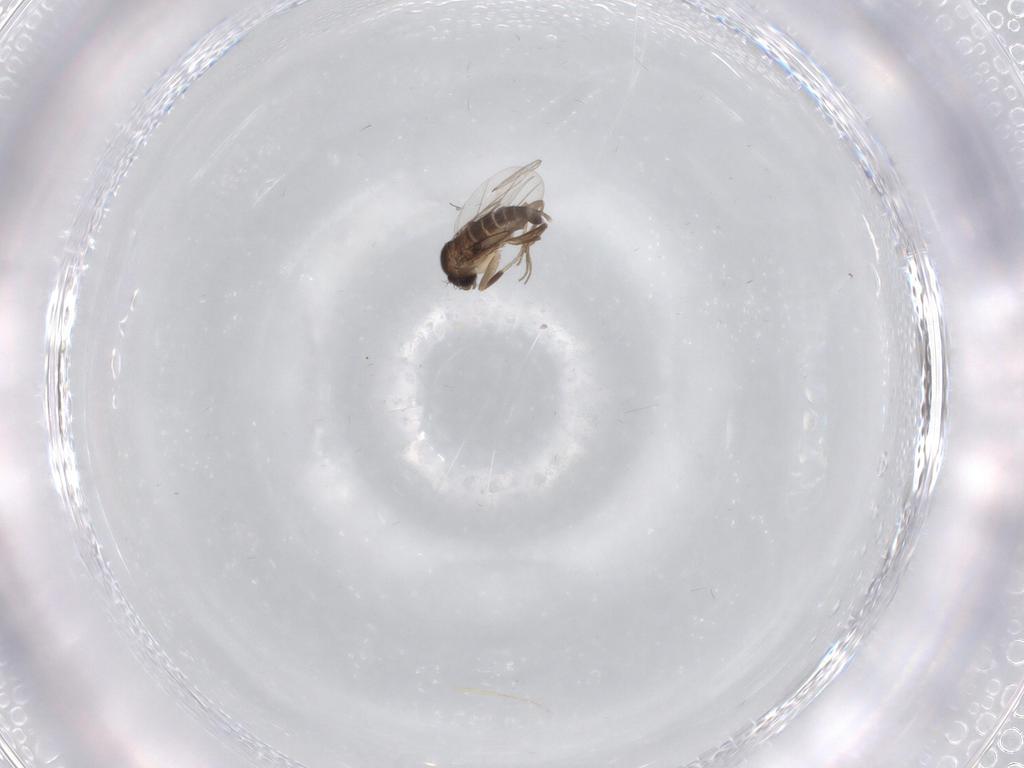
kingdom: Animalia
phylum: Arthropoda
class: Insecta
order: Diptera
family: Phoridae
